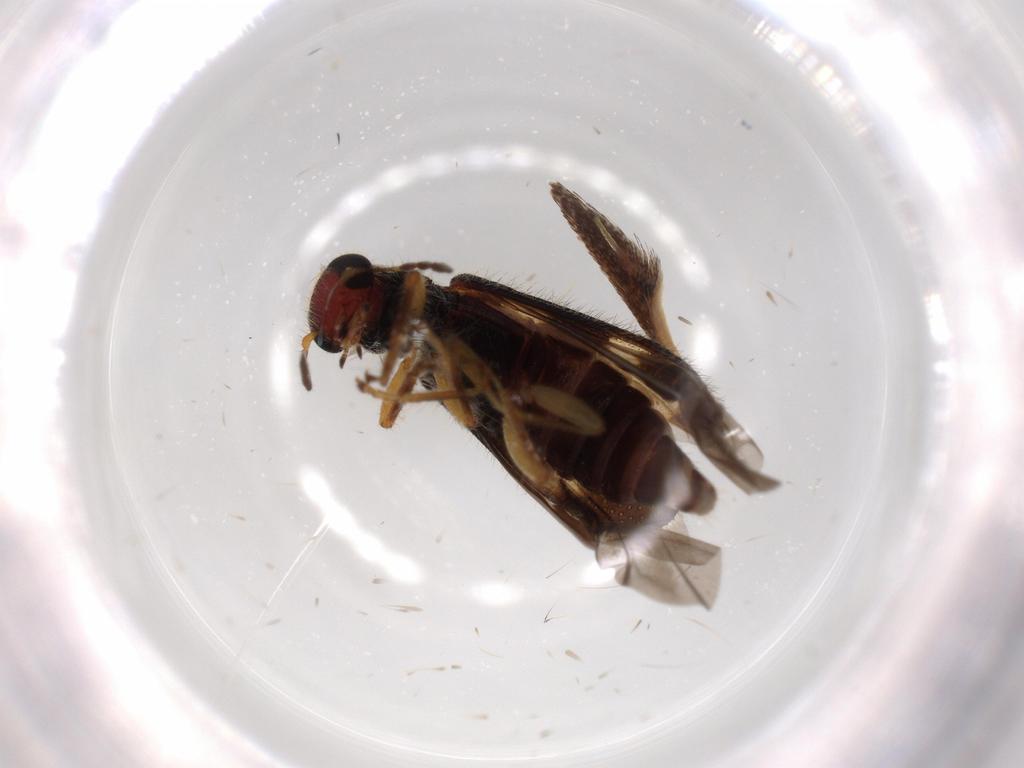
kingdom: Animalia
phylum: Arthropoda
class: Insecta
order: Coleoptera
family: Cleridae
